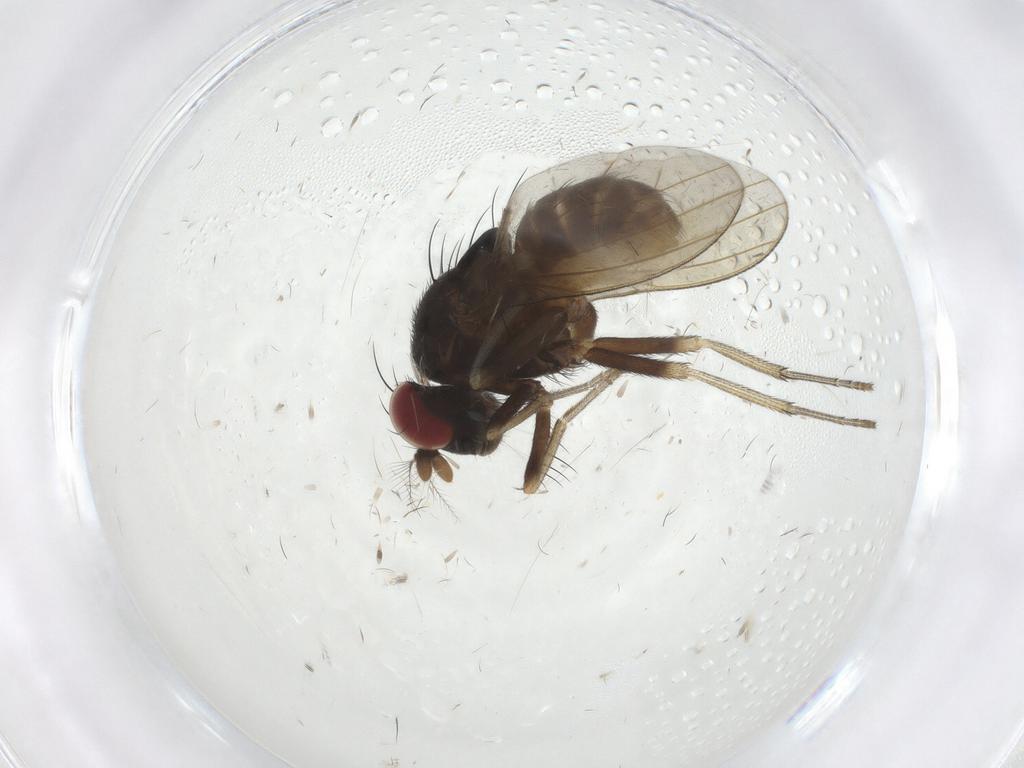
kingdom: Animalia
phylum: Arthropoda
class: Insecta
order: Diptera
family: Lauxaniidae
